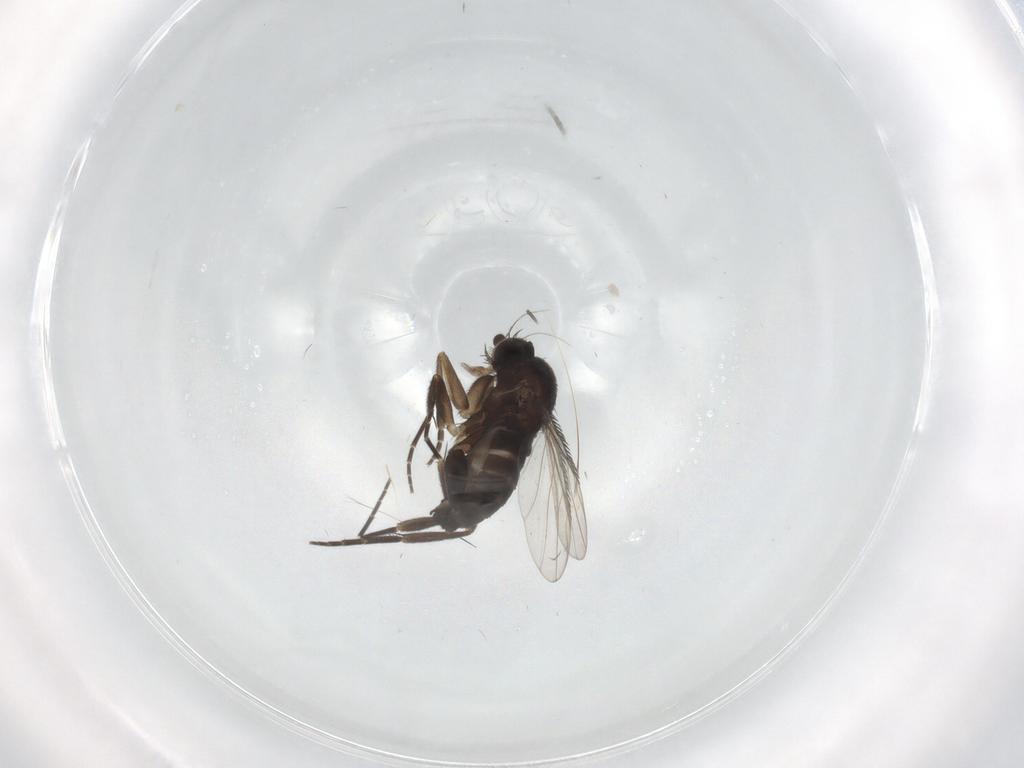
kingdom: Animalia
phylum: Arthropoda
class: Insecta
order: Diptera
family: Phoridae
